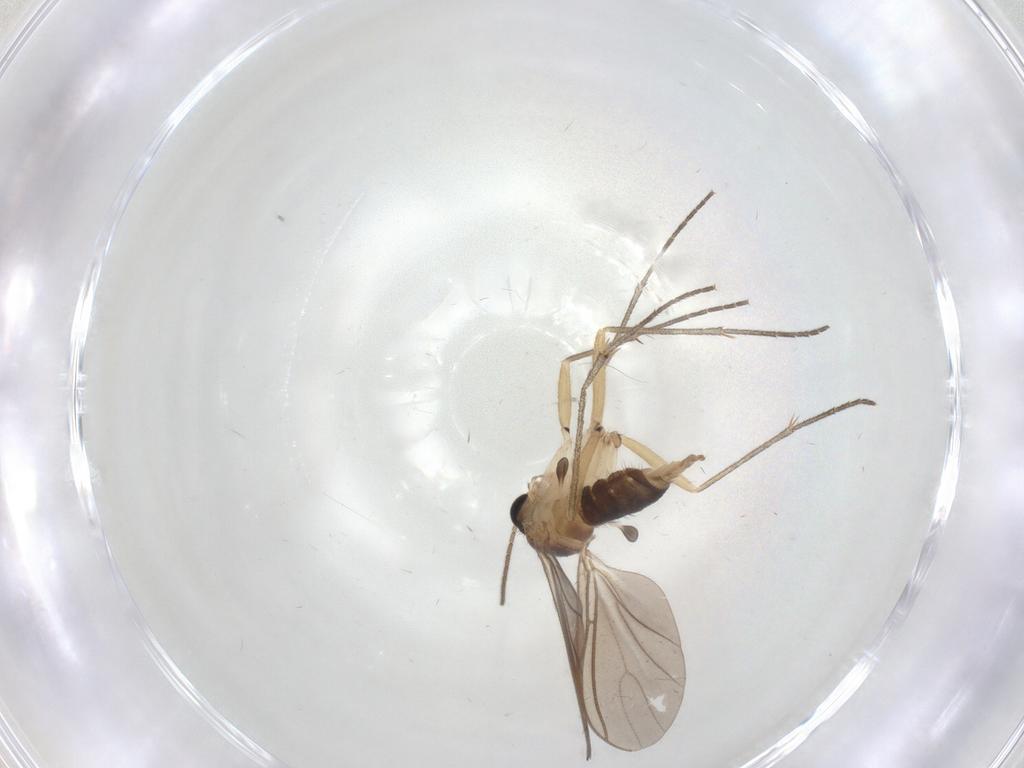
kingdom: Animalia
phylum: Arthropoda
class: Insecta
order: Diptera
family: Sciaridae
